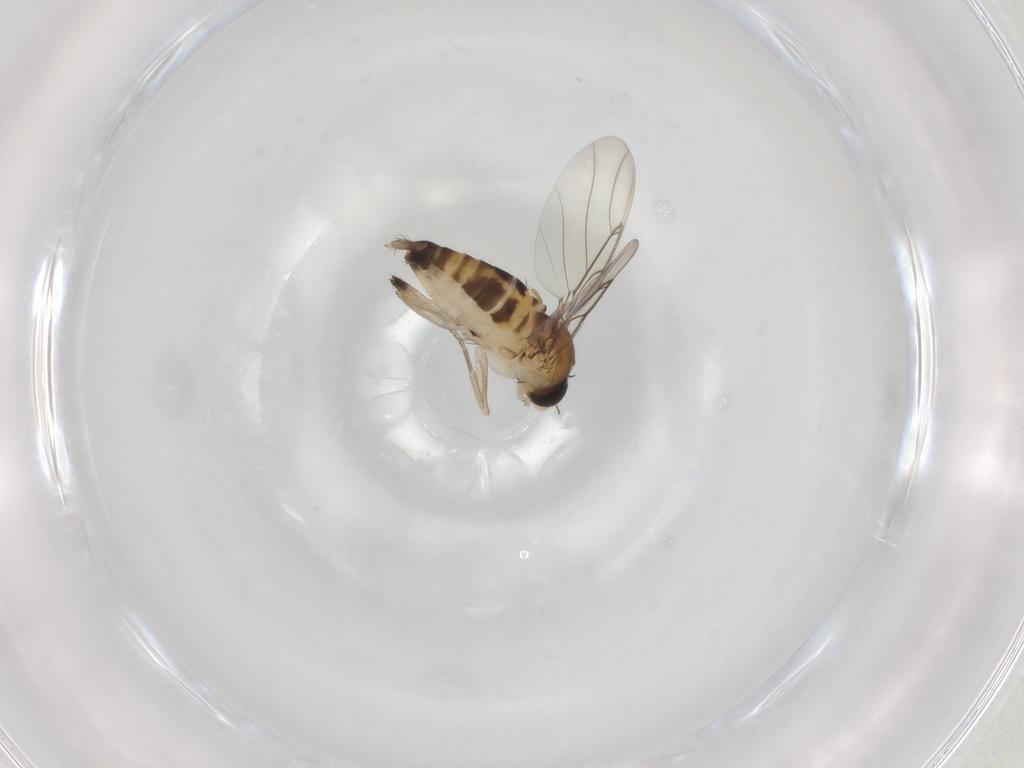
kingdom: Animalia
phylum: Arthropoda
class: Insecta
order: Diptera
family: Phoridae
